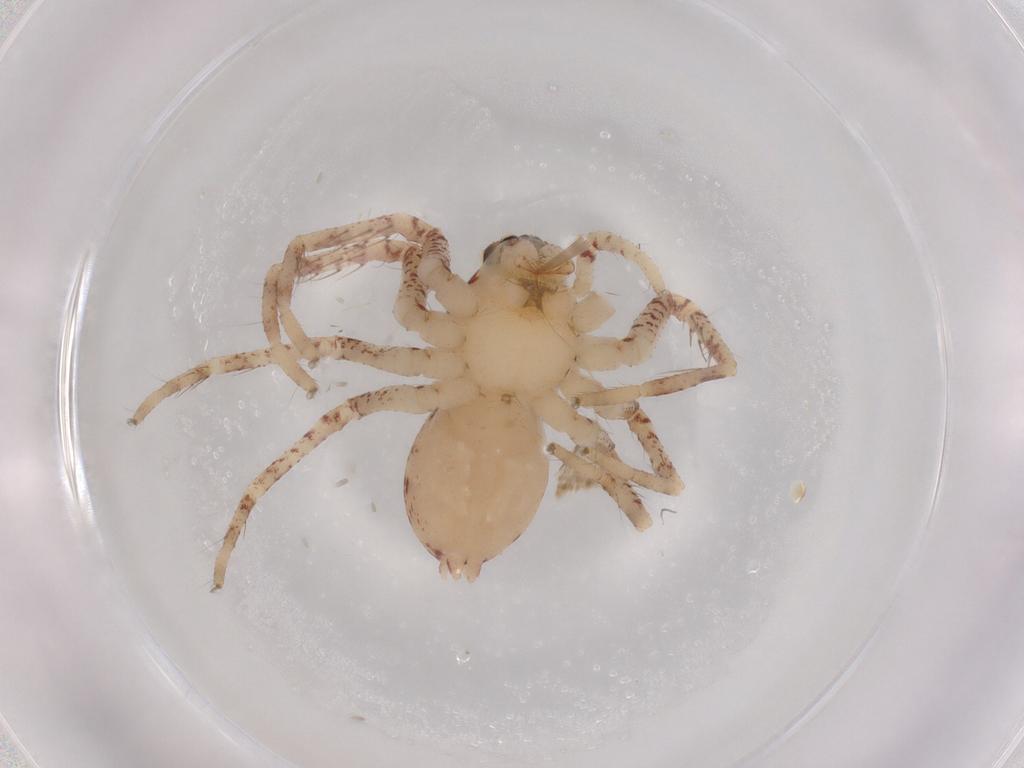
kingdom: Animalia
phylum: Arthropoda
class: Arachnida
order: Araneae
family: Sparassidae
